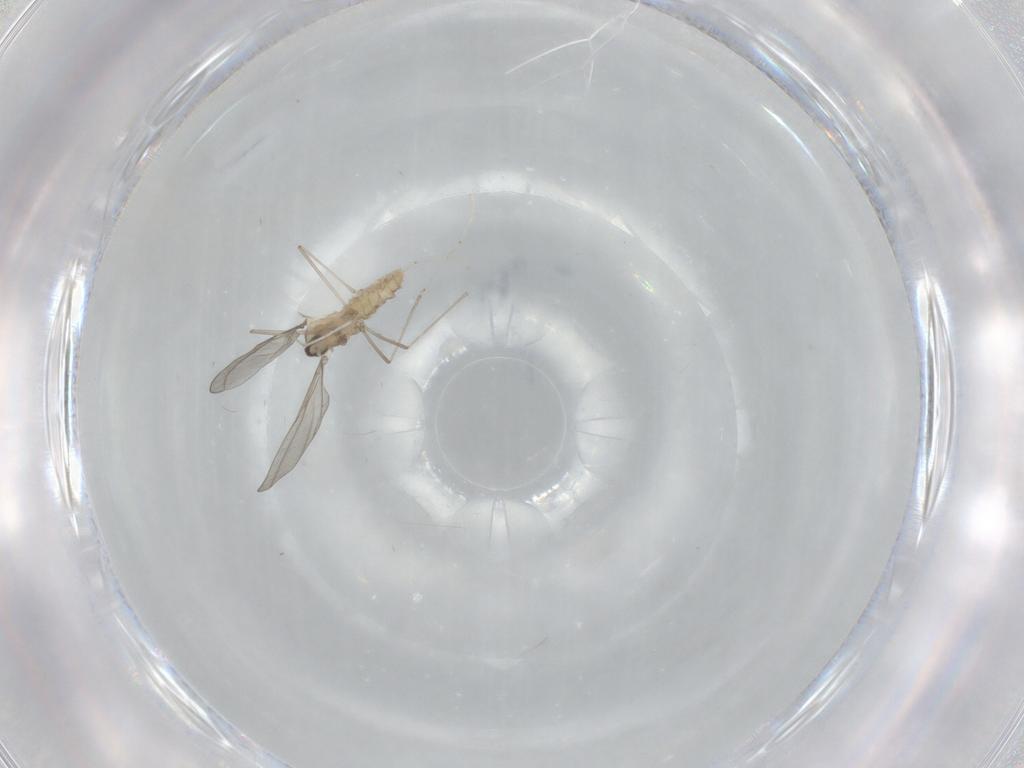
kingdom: Animalia
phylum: Arthropoda
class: Insecta
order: Diptera
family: Cecidomyiidae
